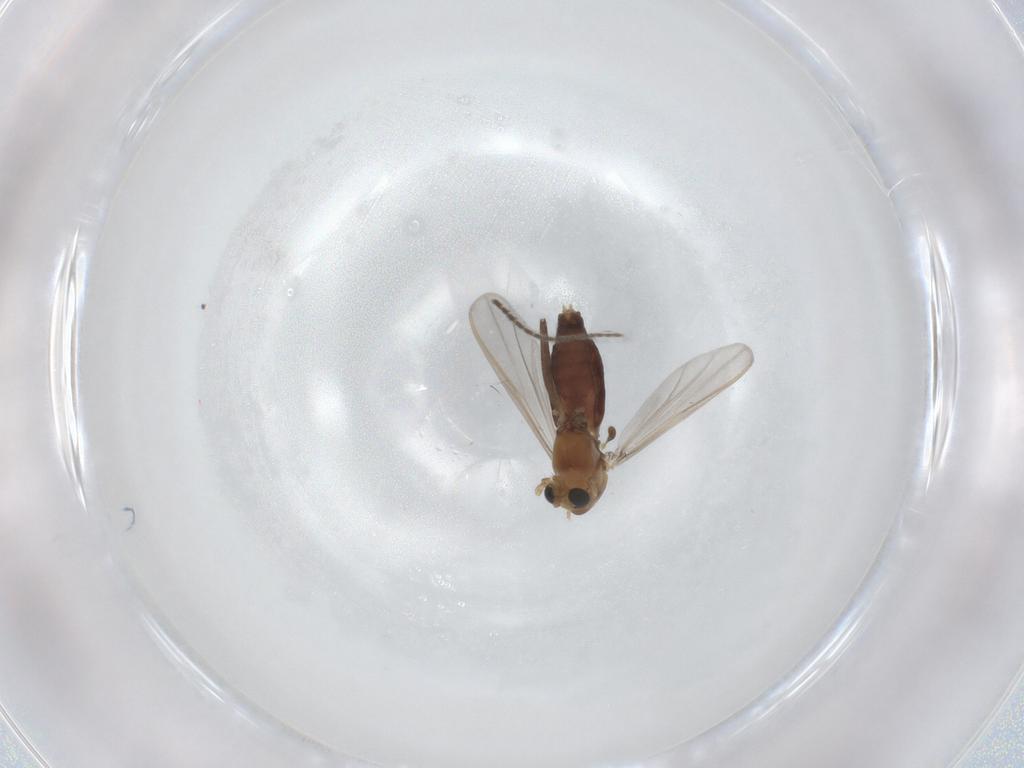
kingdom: Animalia
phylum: Arthropoda
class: Insecta
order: Diptera
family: Chironomidae
